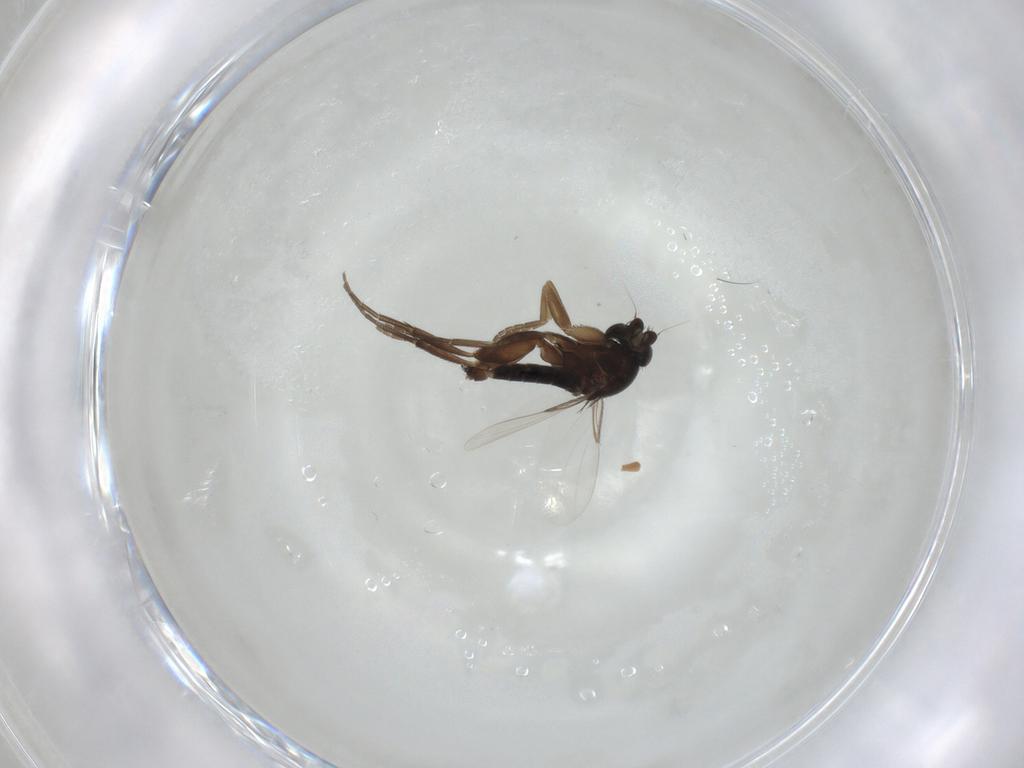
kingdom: Animalia
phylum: Arthropoda
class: Insecta
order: Diptera
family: Phoridae
